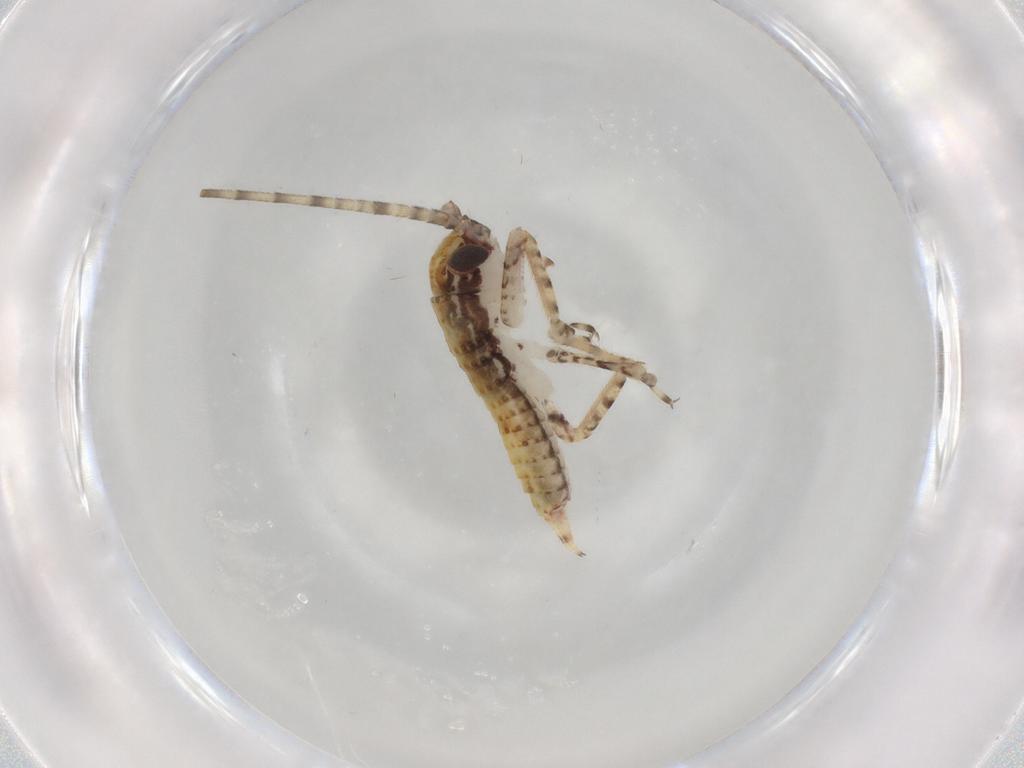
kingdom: Animalia
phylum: Arthropoda
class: Insecta
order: Orthoptera
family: Gryllidae
